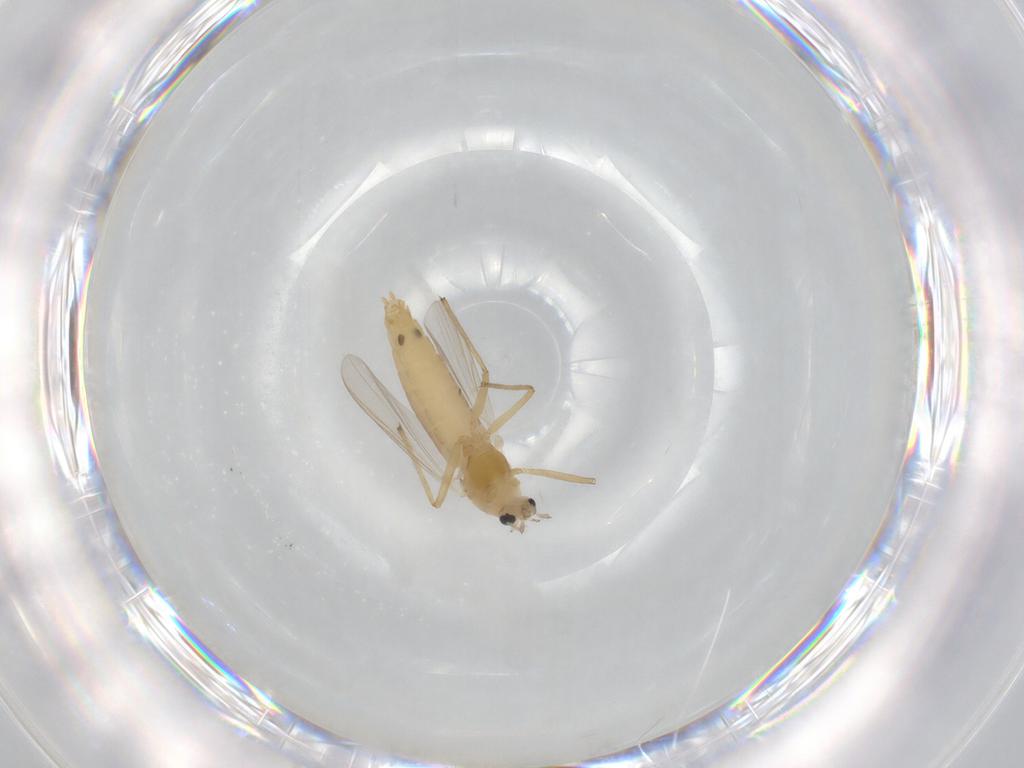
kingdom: Animalia
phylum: Arthropoda
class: Insecta
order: Diptera
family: Chironomidae
